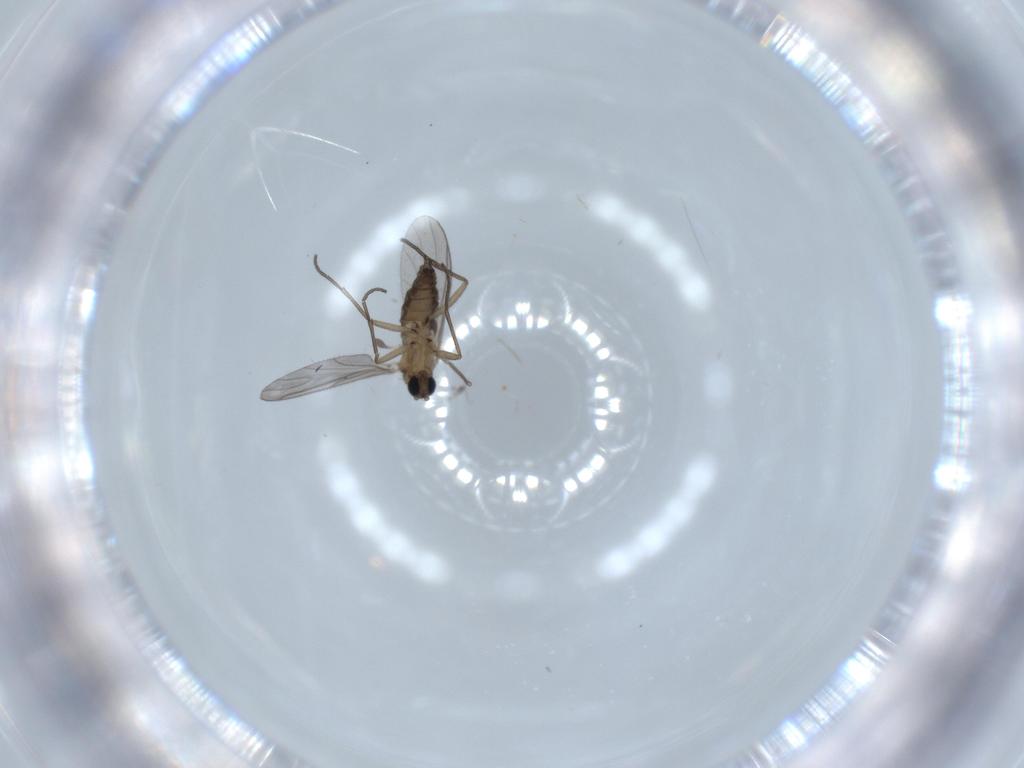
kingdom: Animalia
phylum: Arthropoda
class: Insecta
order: Diptera
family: Sciaridae
